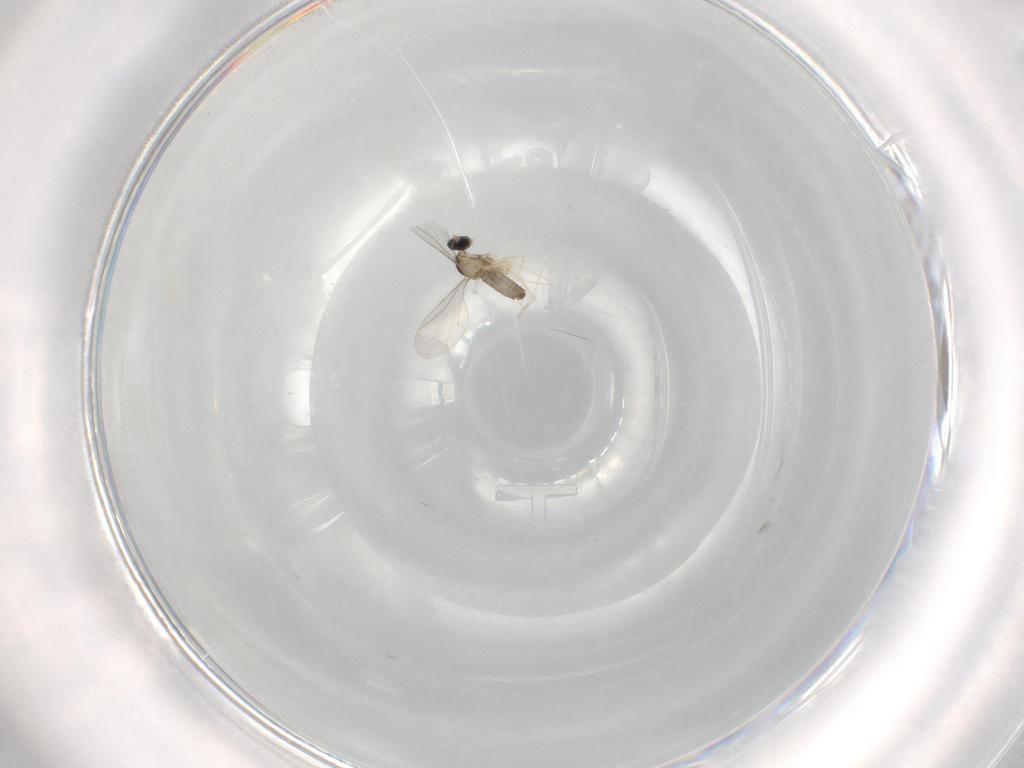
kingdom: Animalia
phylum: Arthropoda
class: Insecta
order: Diptera
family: Cecidomyiidae
